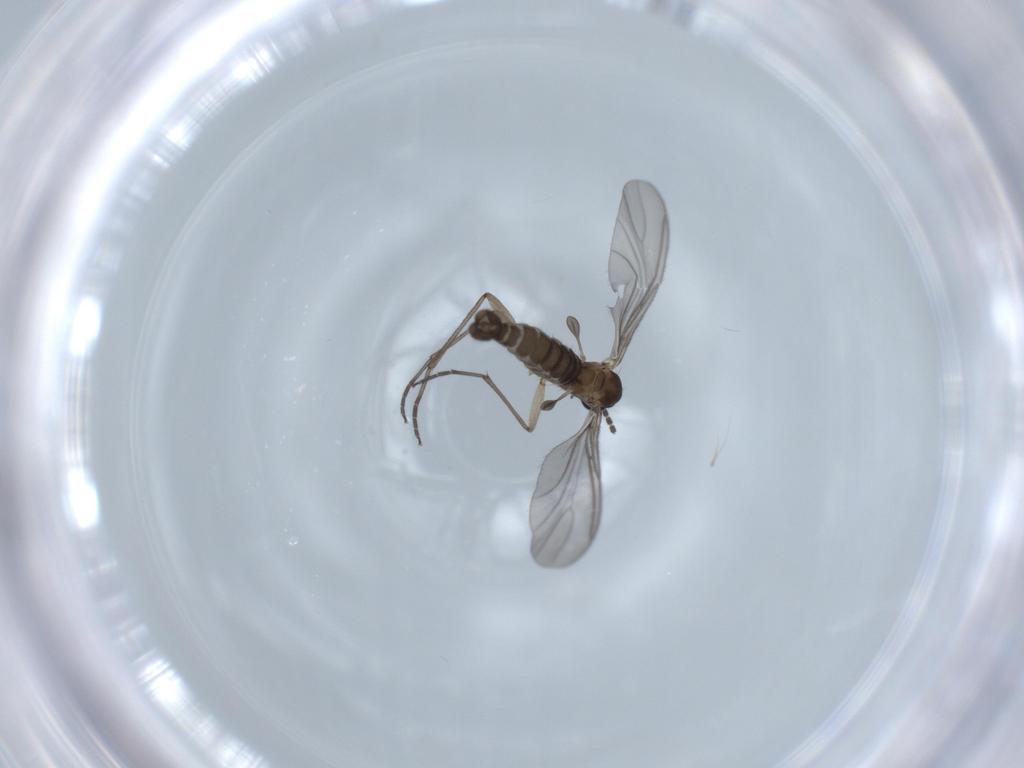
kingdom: Animalia
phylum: Arthropoda
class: Insecta
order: Diptera
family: Sciaridae
